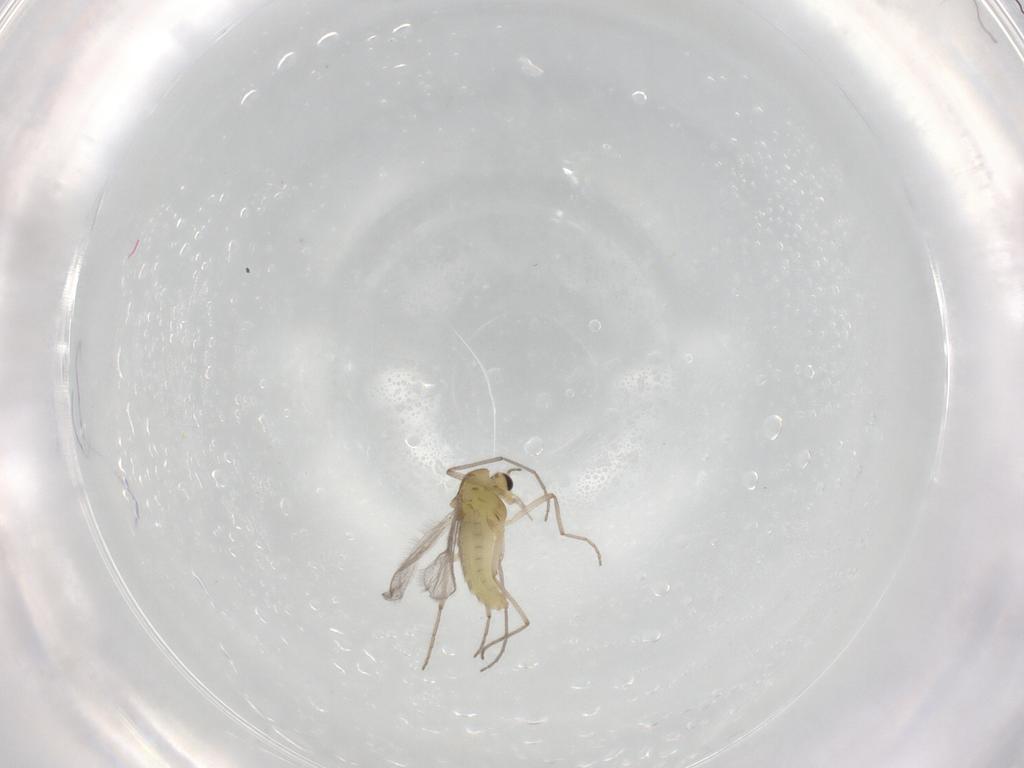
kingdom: Animalia
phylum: Arthropoda
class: Insecta
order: Diptera
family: Chironomidae
